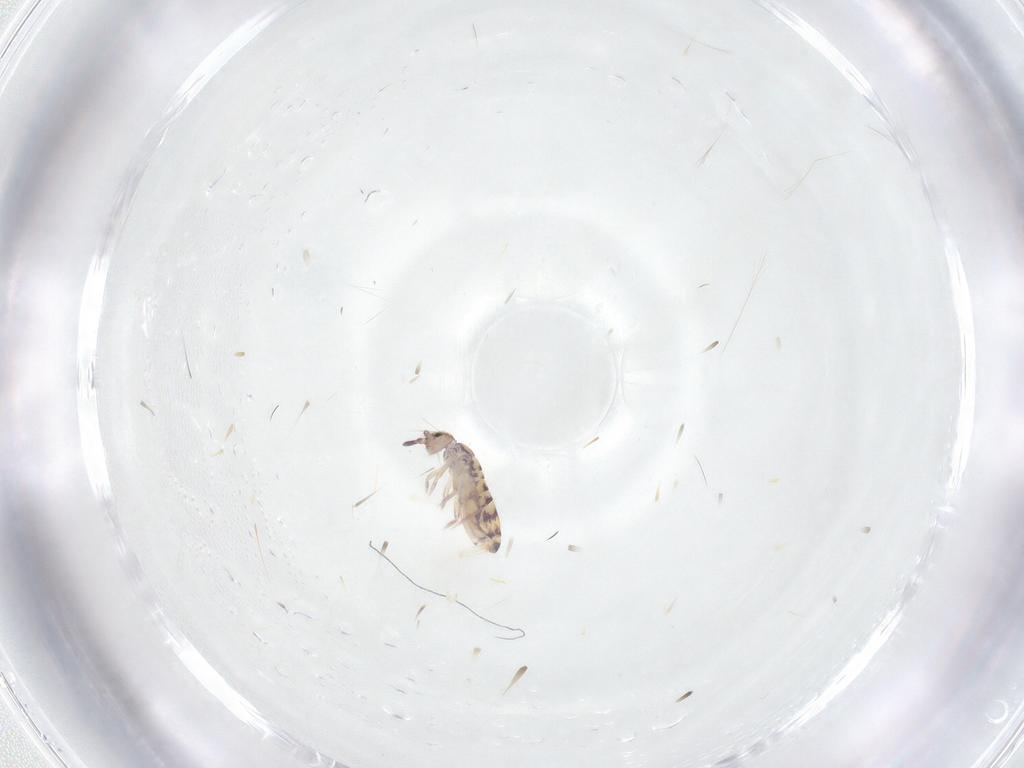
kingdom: Animalia
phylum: Arthropoda
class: Collembola
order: Entomobryomorpha
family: Entomobryidae
